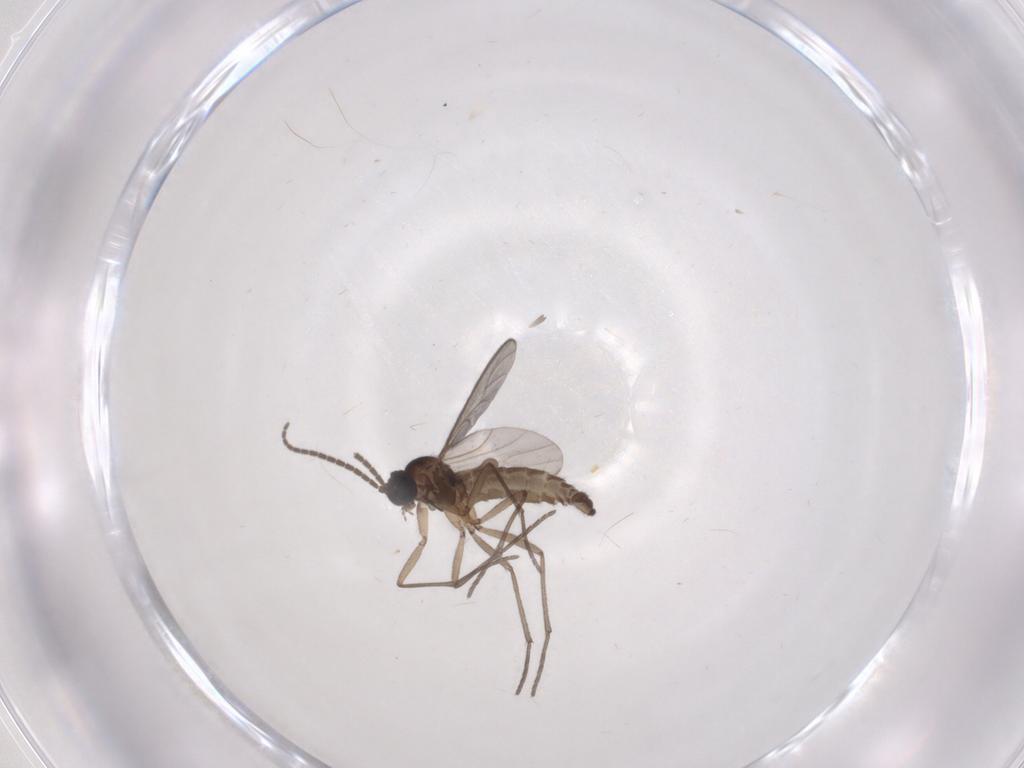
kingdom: Animalia
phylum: Arthropoda
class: Insecta
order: Diptera
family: Sciaridae
